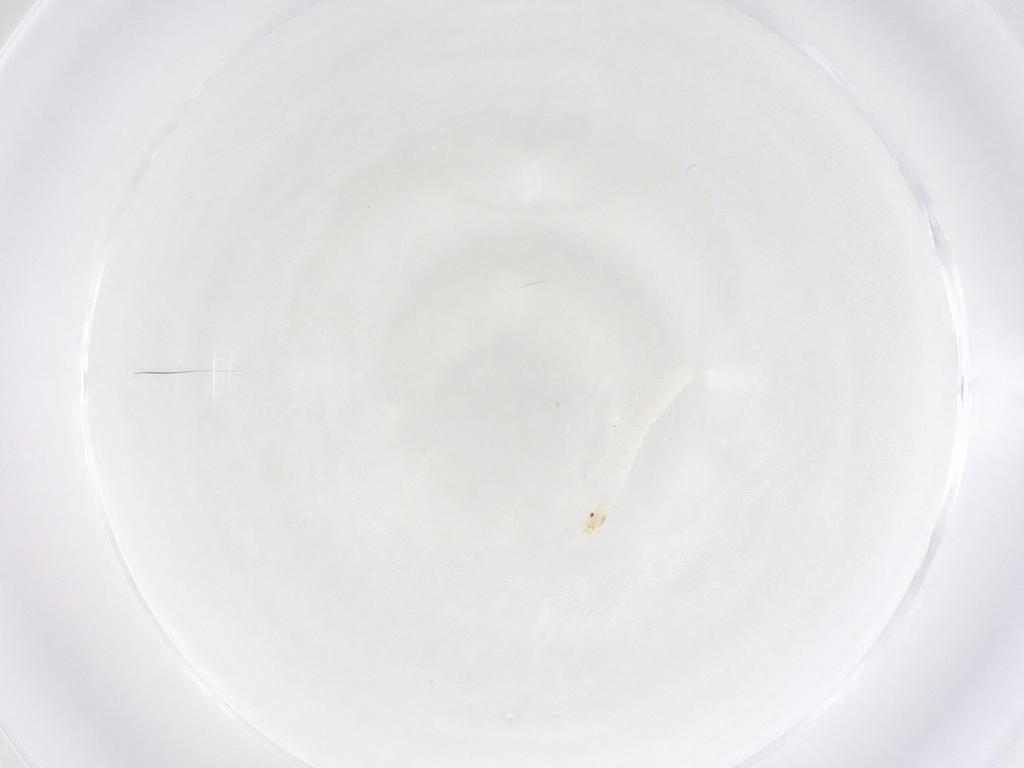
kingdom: Animalia
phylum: Arthropoda
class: Insecta
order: Diptera
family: Stratiomyidae
